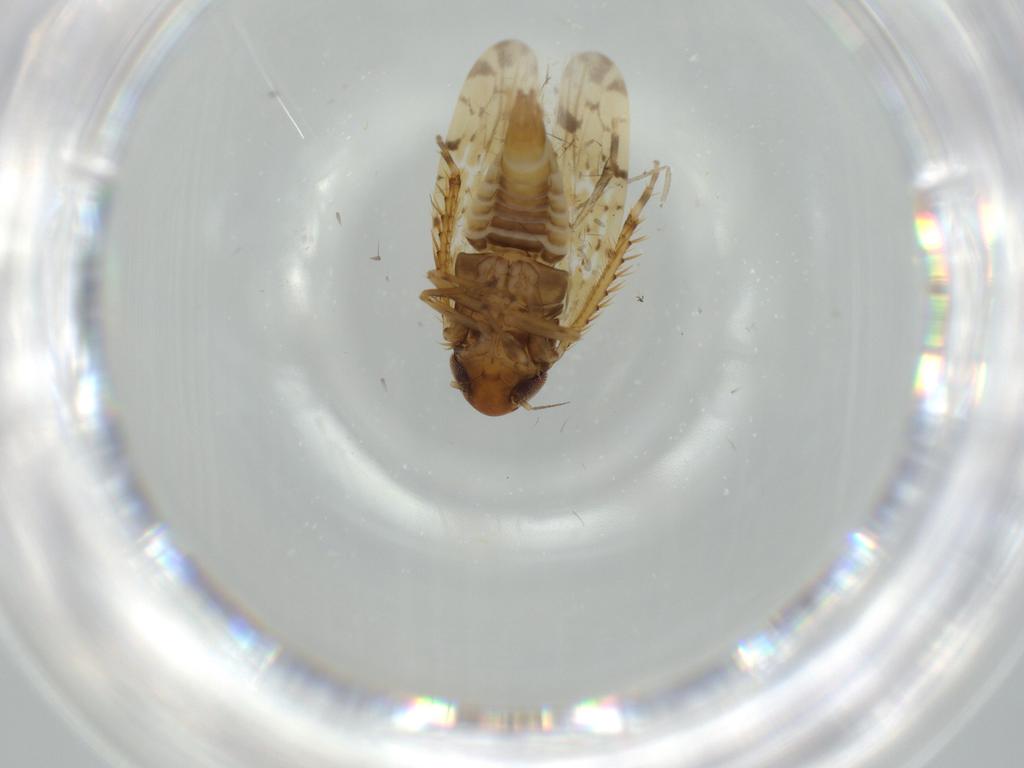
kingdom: Animalia
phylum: Arthropoda
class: Insecta
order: Hemiptera
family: Cicadellidae
